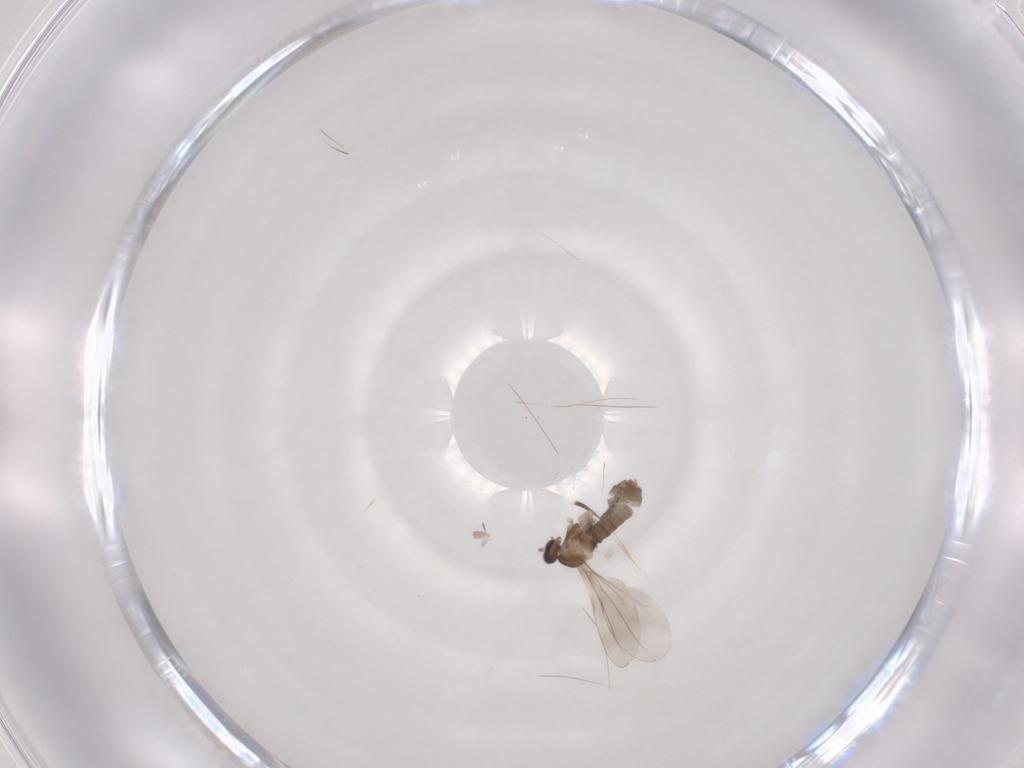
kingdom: Animalia
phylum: Arthropoda
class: Insecta
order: Diptera
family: Cecidomyiidae
